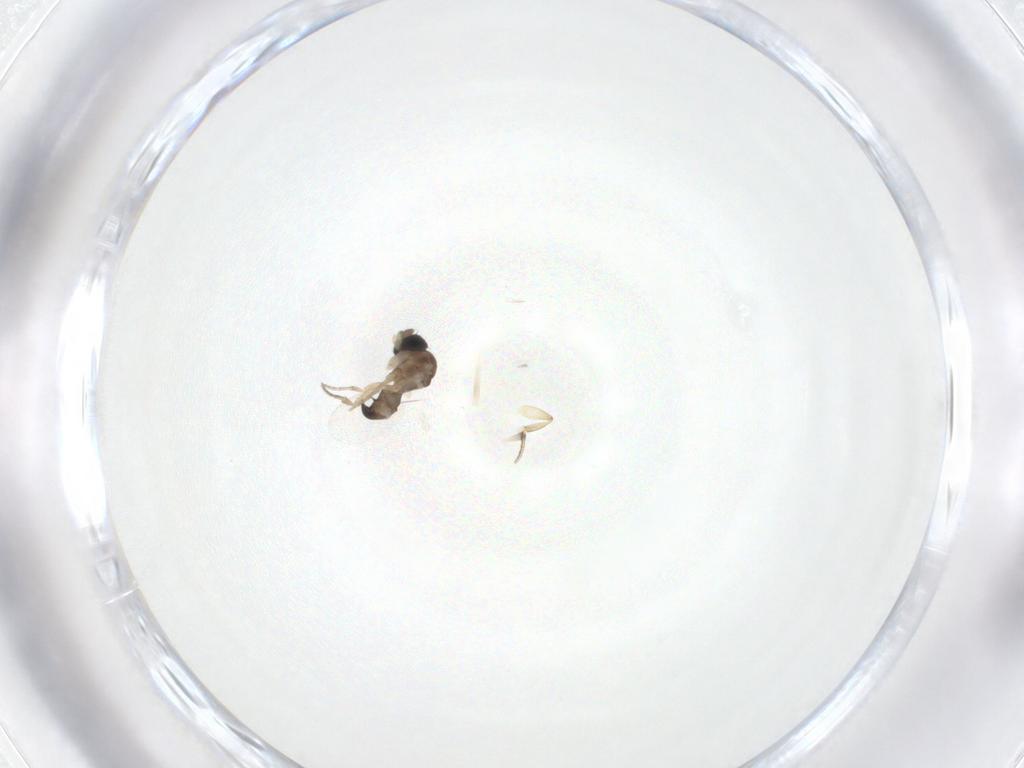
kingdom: Animalia
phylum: Arthropoda
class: Insecta
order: Diptera
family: Phoridae
